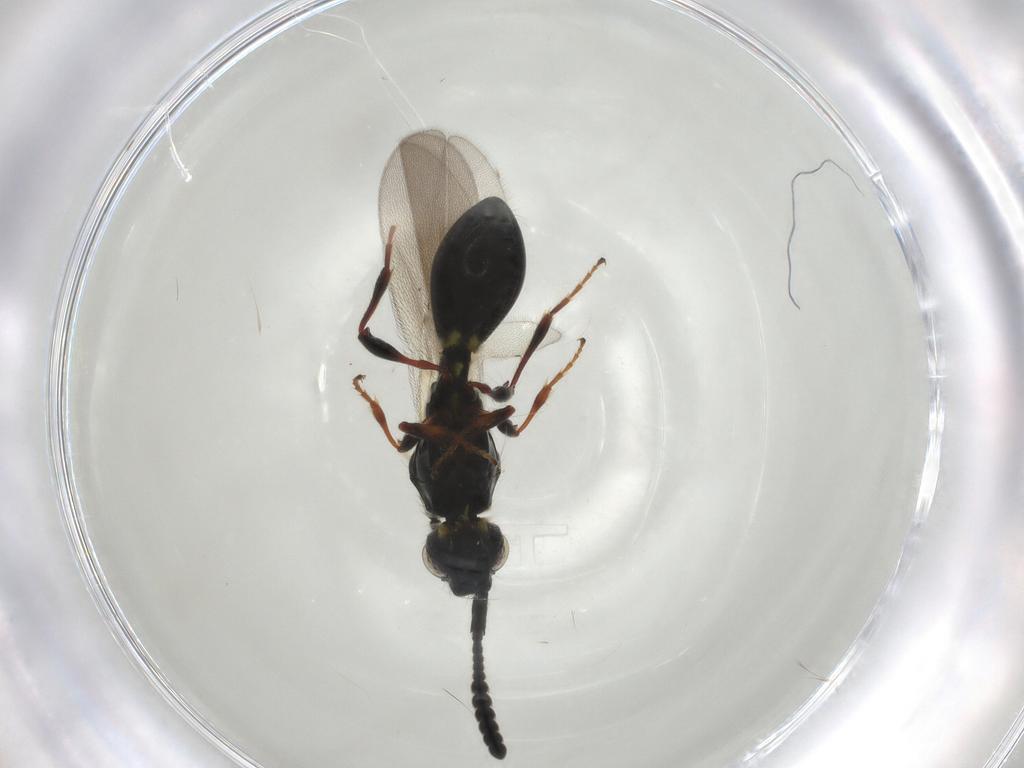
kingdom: Animalia
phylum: Arthropoda
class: Insecta
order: Hymenoptera
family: Diapriidae
